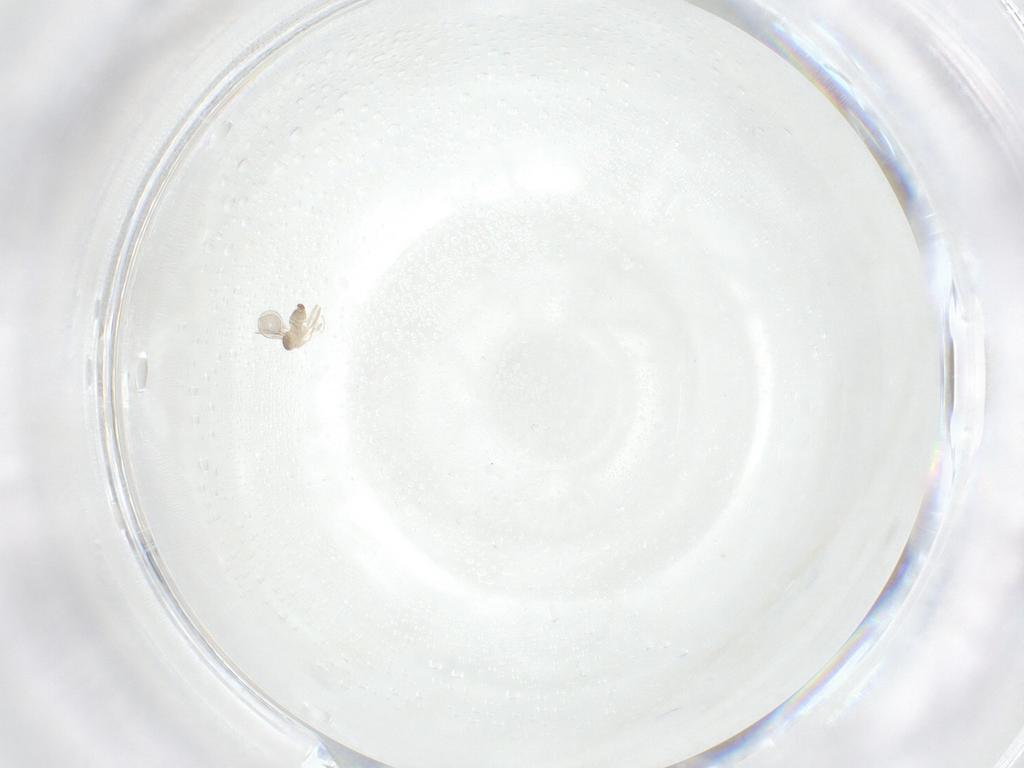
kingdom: Animalia
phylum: Arthropoda
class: Insecta
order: Diptera
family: Cecidomyiidae
